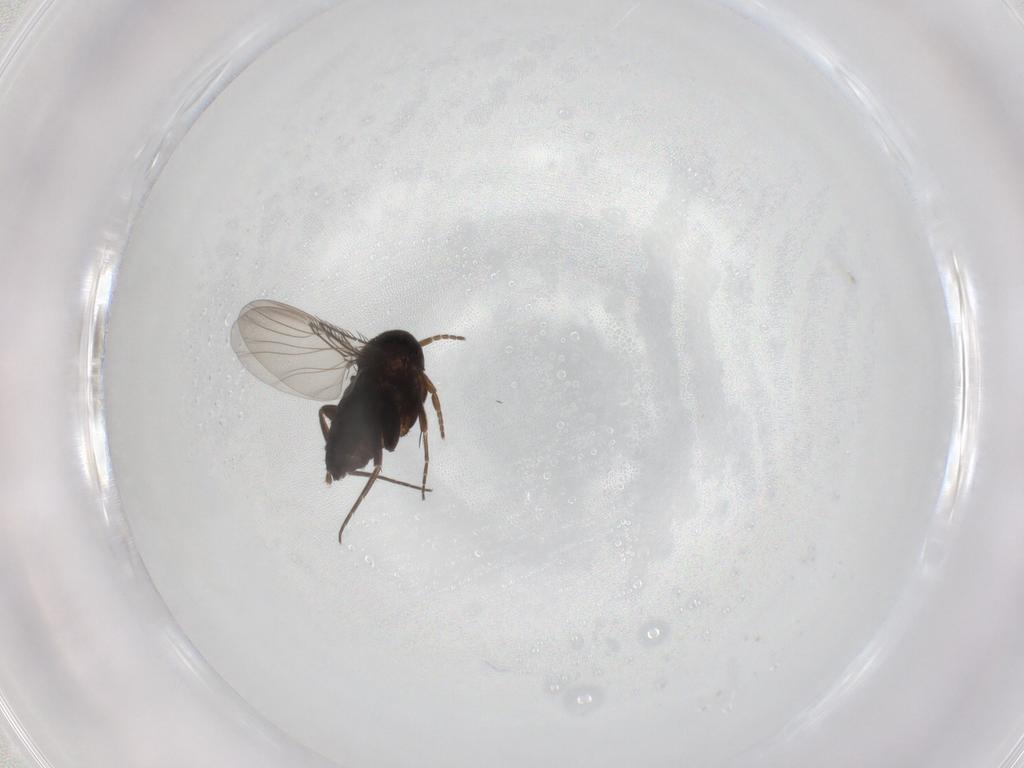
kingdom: Animalia
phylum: Arthropoda
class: Insecta
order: Diptera
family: Phoridae
